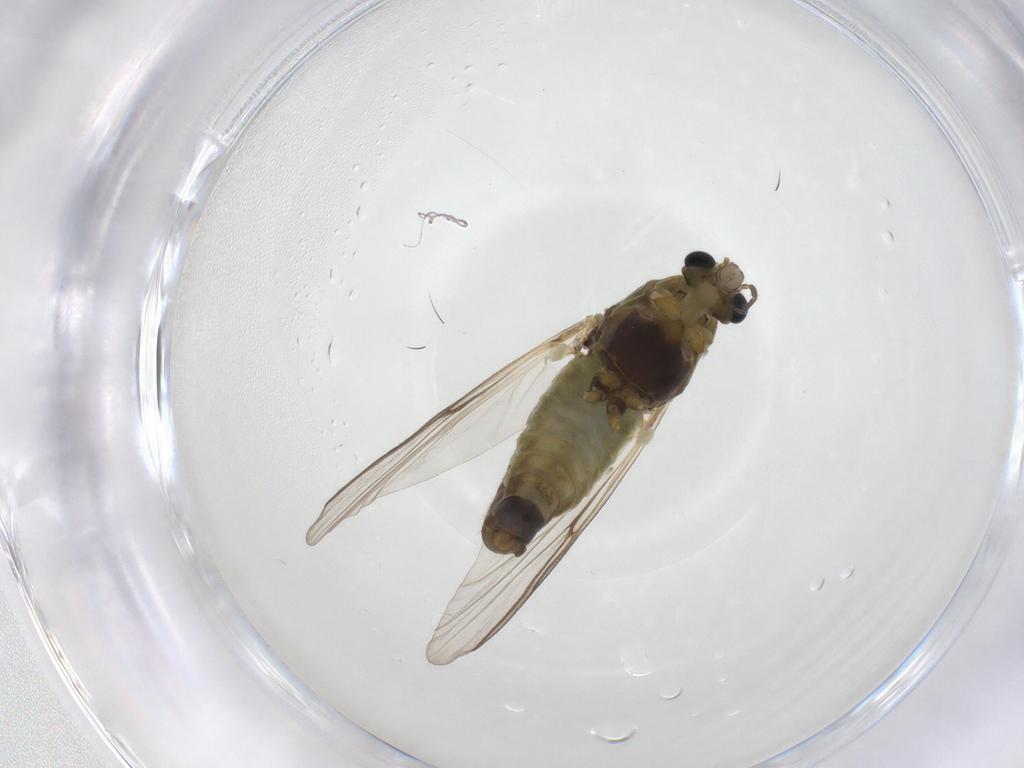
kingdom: Animalia
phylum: Arthropoda
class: Insecta
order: Diptera
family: Chironomidae
